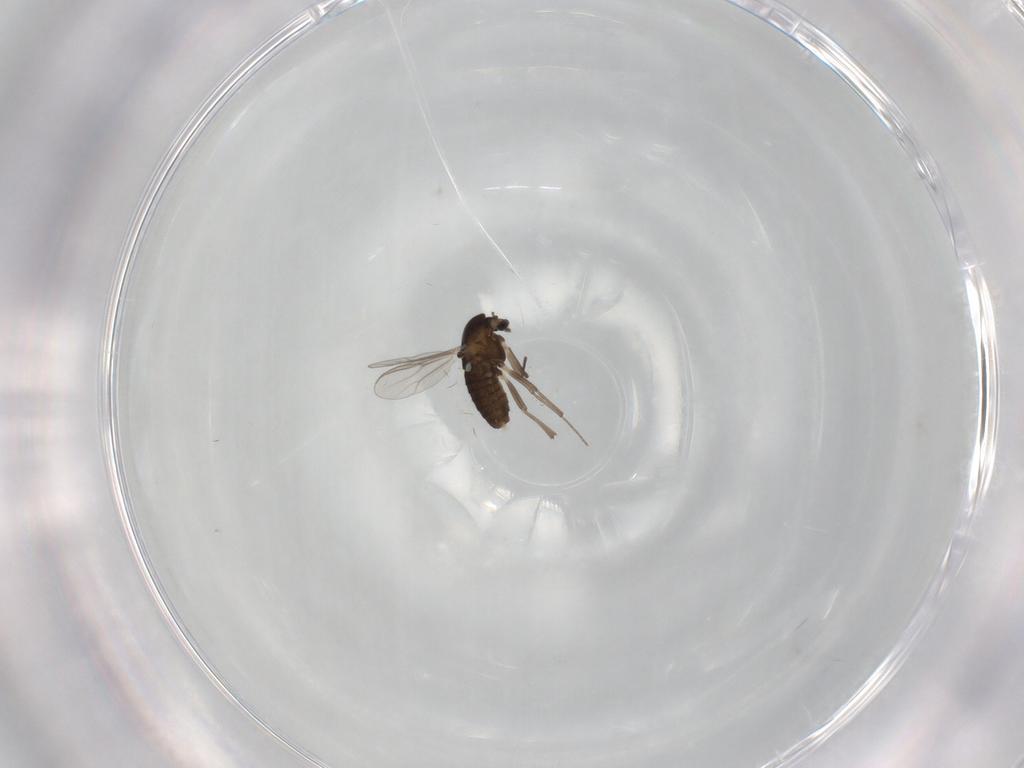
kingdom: Animalia
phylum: Arthropoda
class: Insecta
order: Diptera
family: Chironomidae
